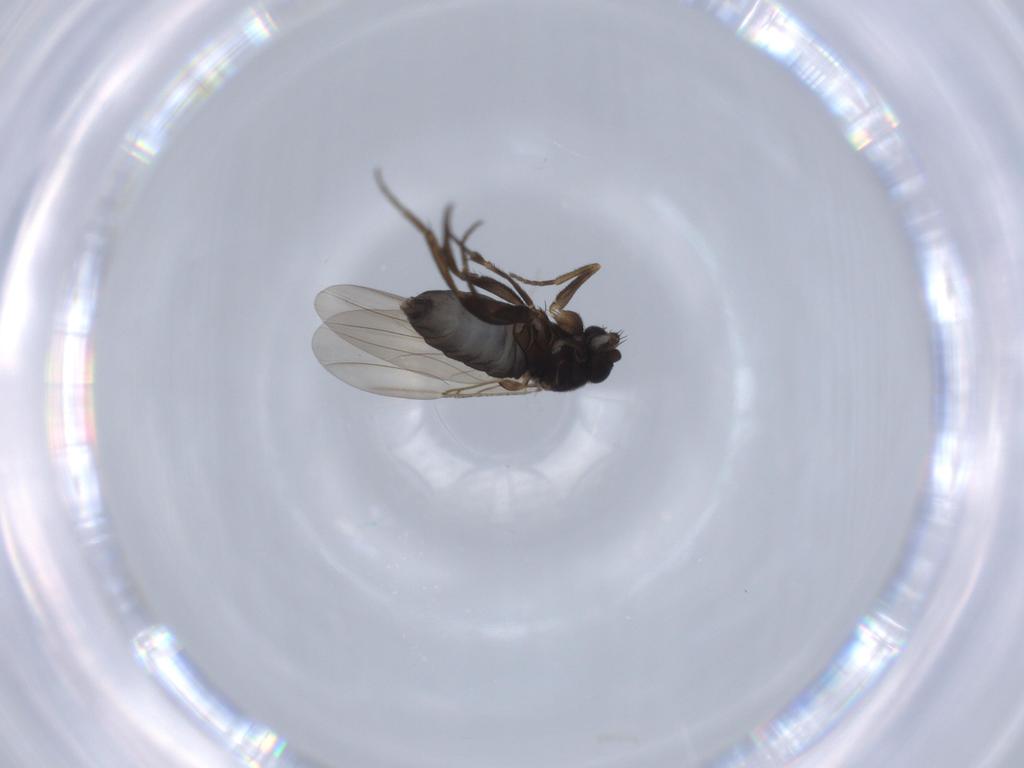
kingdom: Animalia
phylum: Arthropoda
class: Insecta
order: Diptera
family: Phoridae
